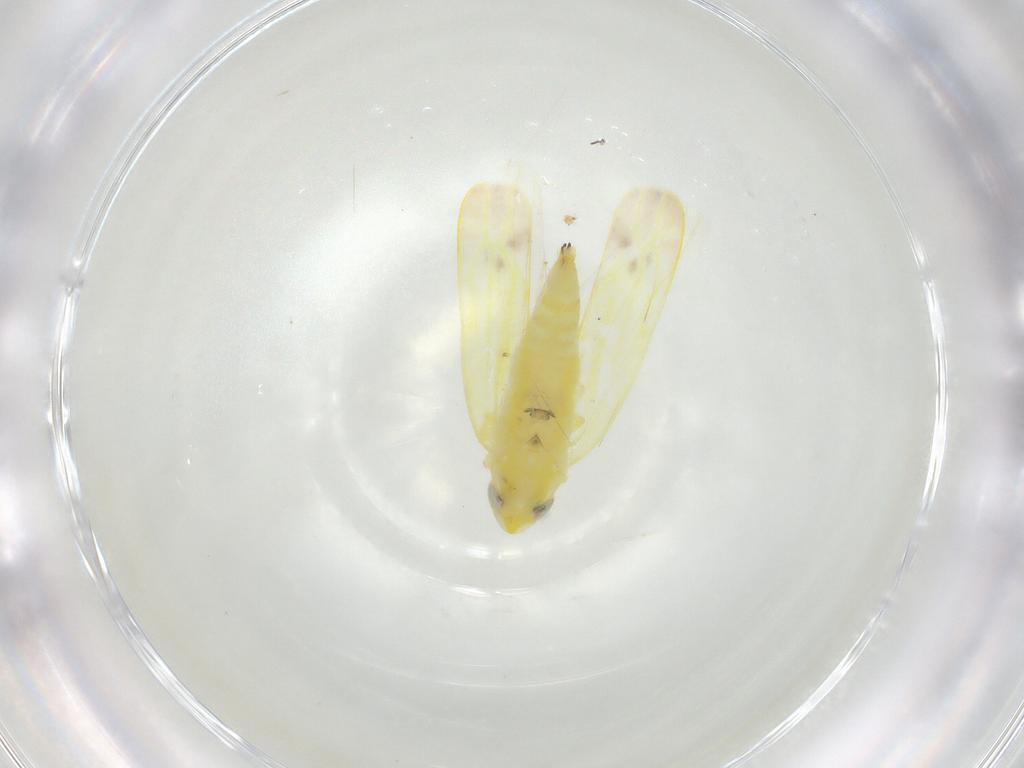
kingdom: Animalia
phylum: Arthropoda
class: Insecta
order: Hemiptera
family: Cicadellidae
